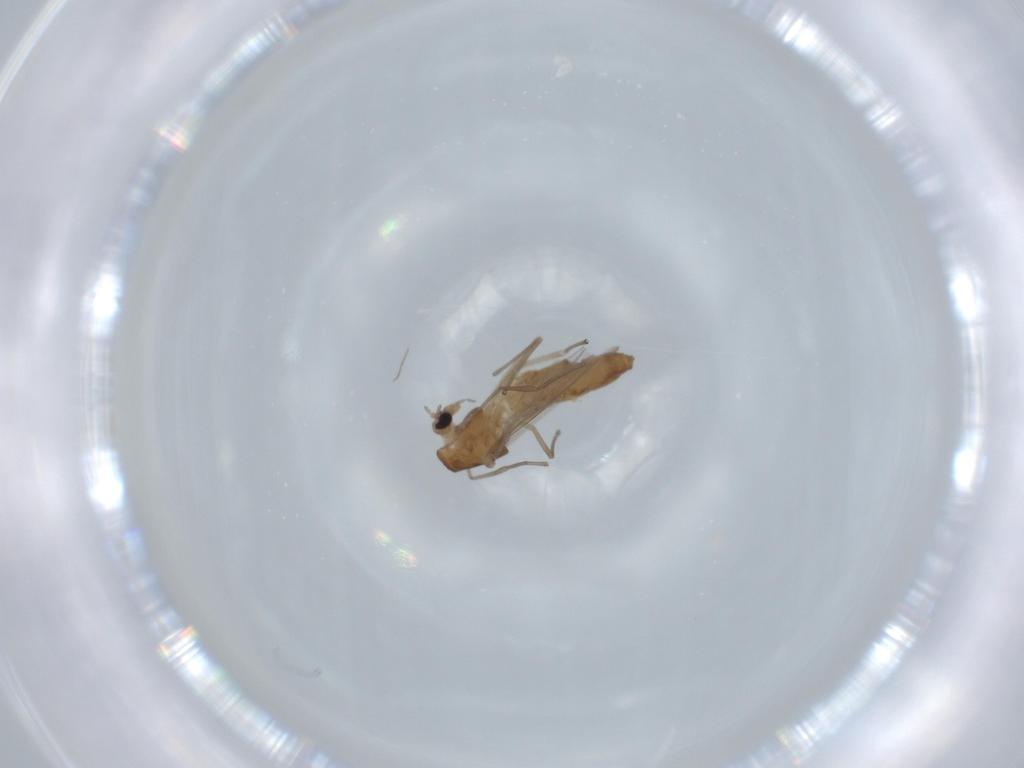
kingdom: Animalia
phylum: Arthropoda
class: Insecta
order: Diptera
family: Chironomidae
